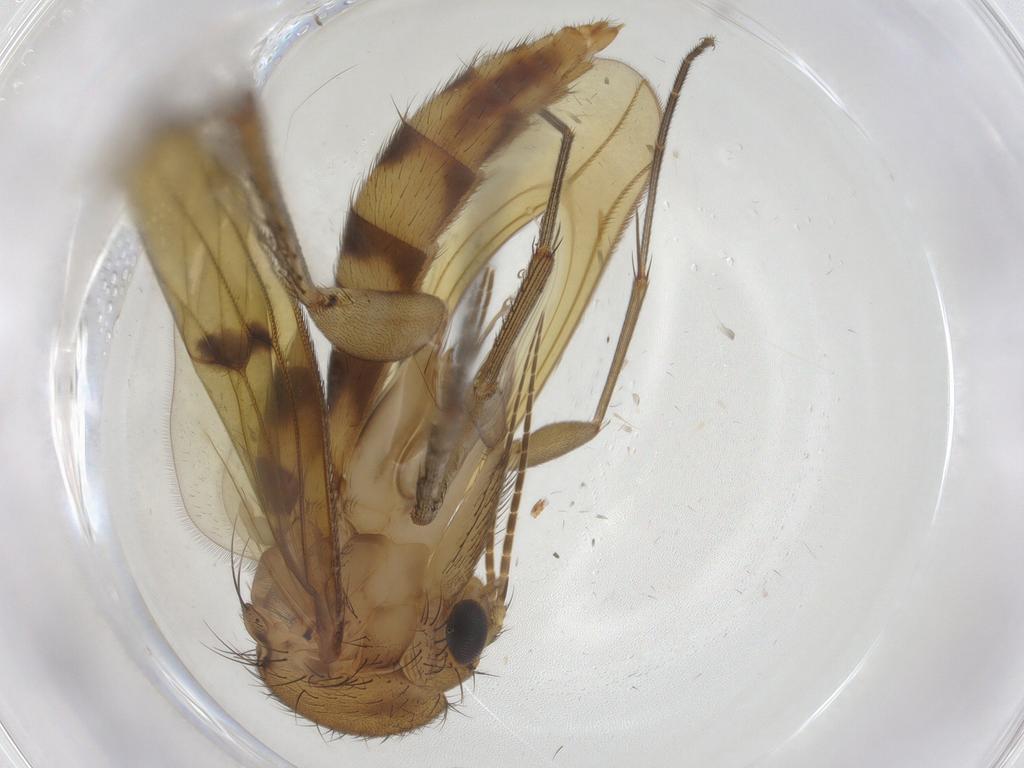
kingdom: Animalia
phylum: Arthropoda
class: Insecta
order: Diptera
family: Mycetophilidae
